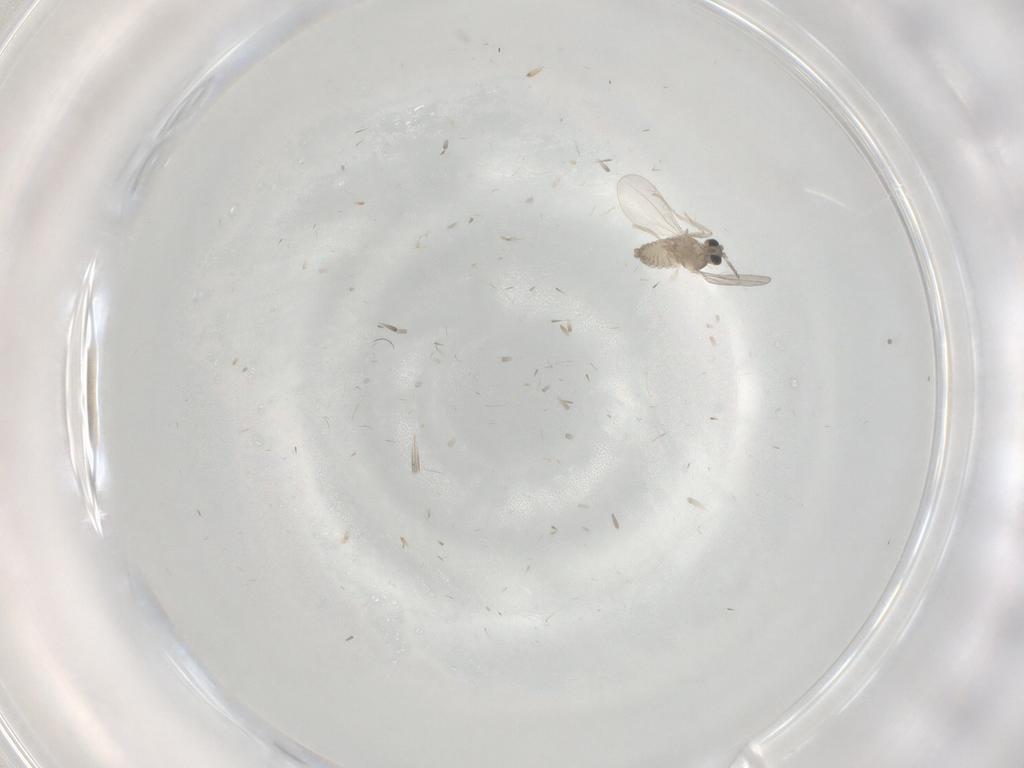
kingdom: Animalia
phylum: Arthropoda
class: Insecta
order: Diptera
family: Cecidomyiidae
